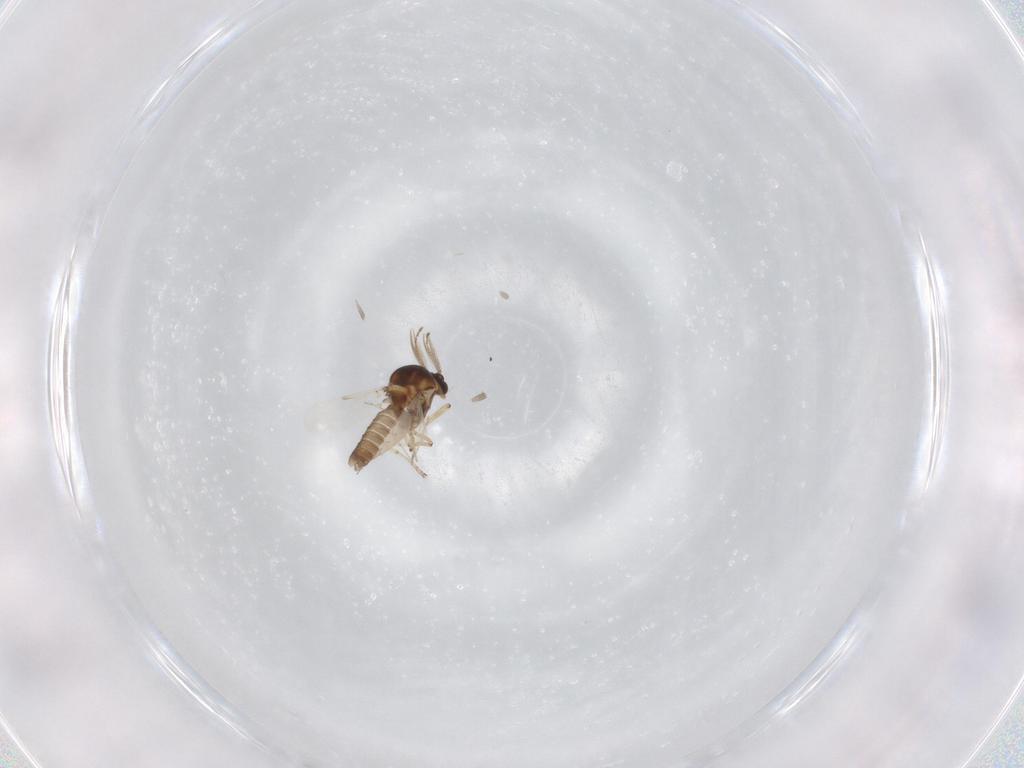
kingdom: Animalia
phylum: Arthropoda
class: Insecta
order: Diptera
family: Ceratopogonidae
